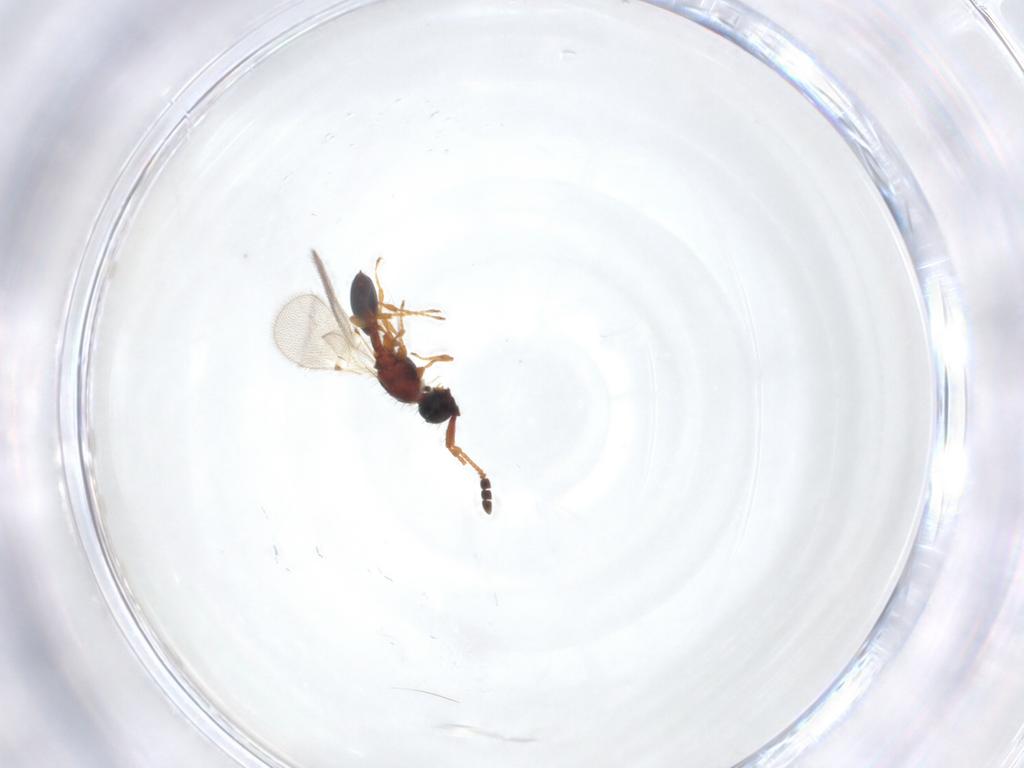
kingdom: Animalia
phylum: Arthropoda
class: Insecta
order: Hymenoptera
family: Diapriidae
